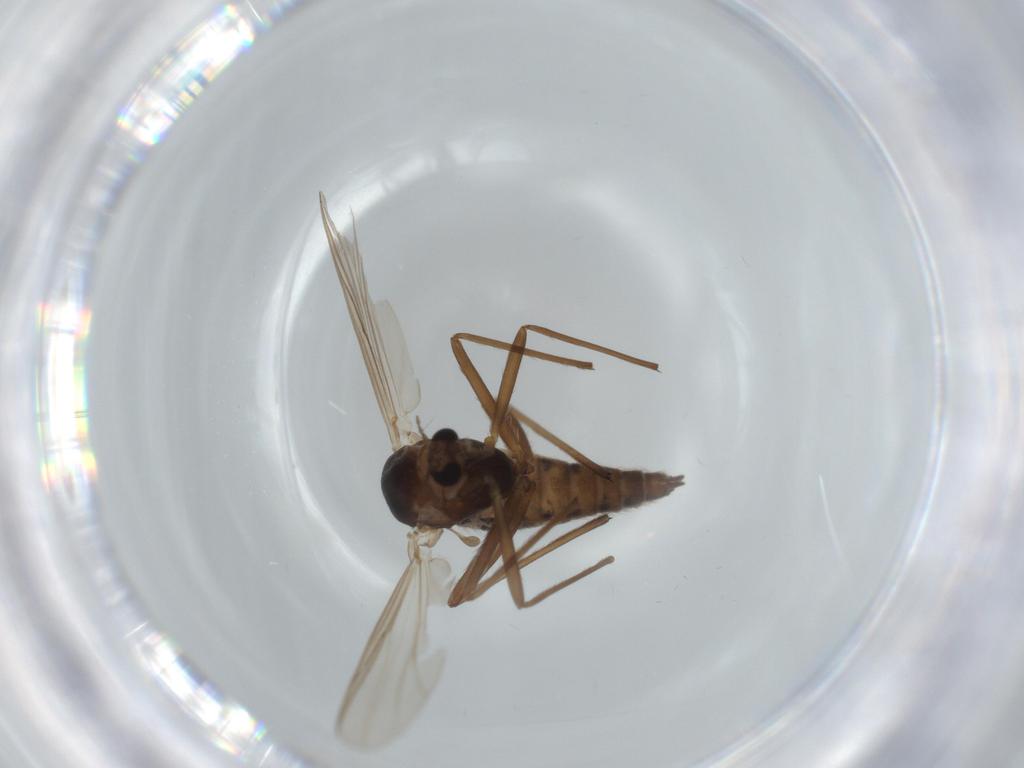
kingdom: Animalia
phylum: Arthropoda
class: Insecta
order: Diptera
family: Chironomidae
